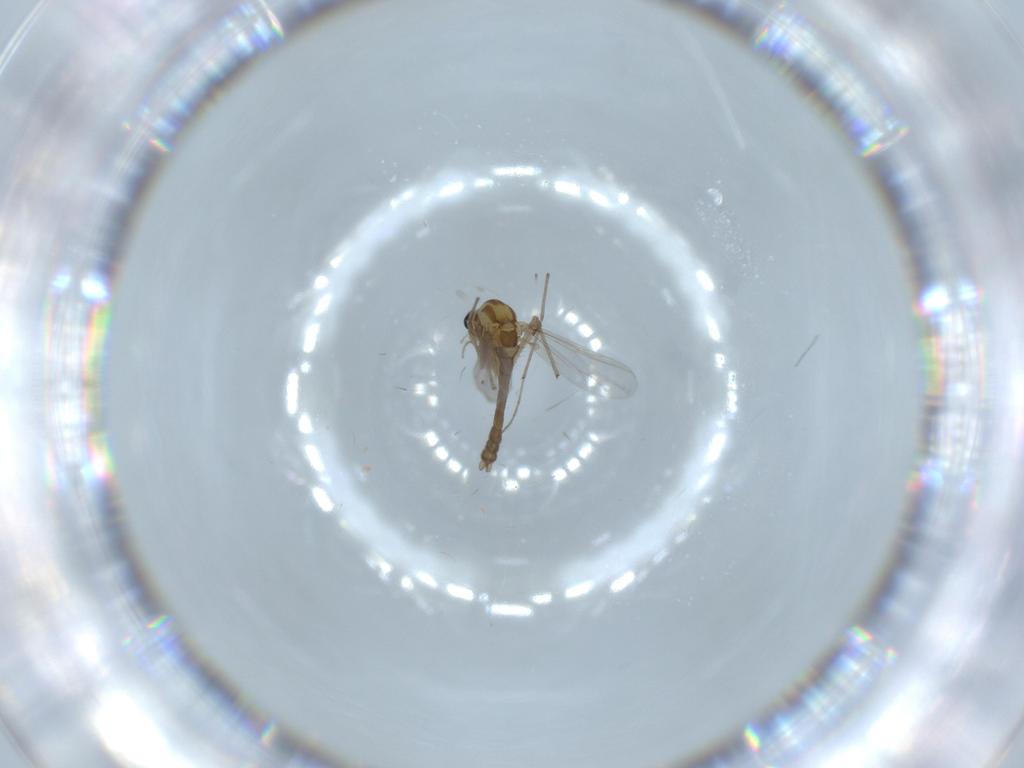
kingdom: Animalia
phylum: Arthropoda
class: Insecta
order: Diptera
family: Chironomidae
